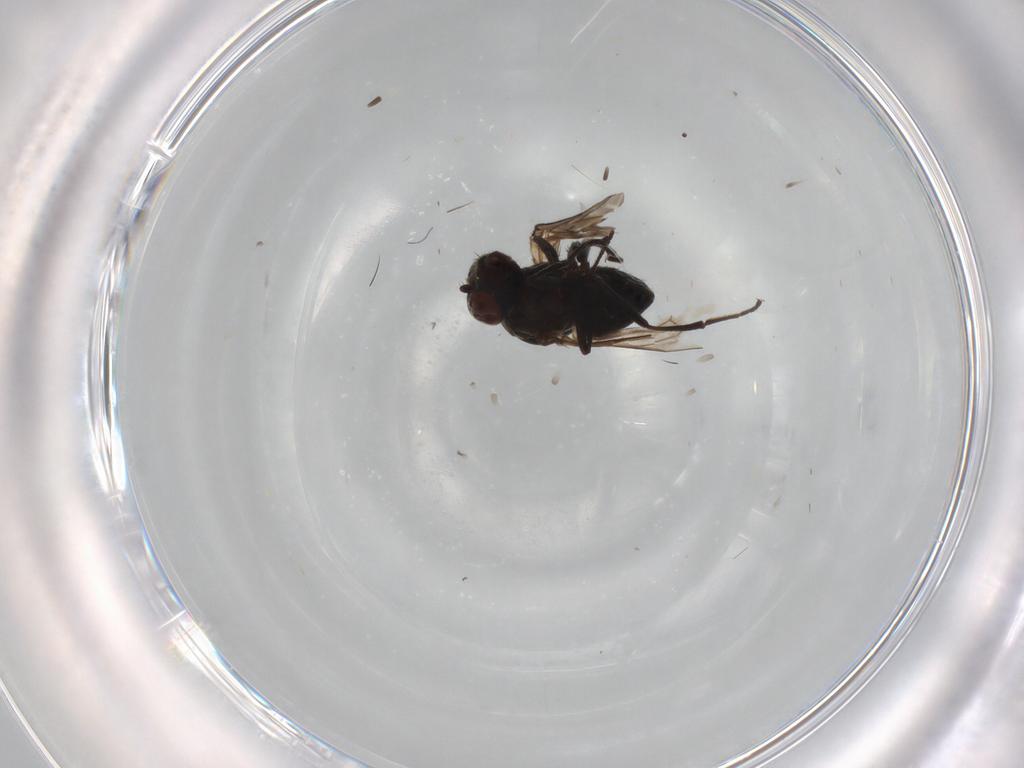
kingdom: Animalia
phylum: Arthropoda
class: Insecta
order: Diptera
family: Ephydridae
